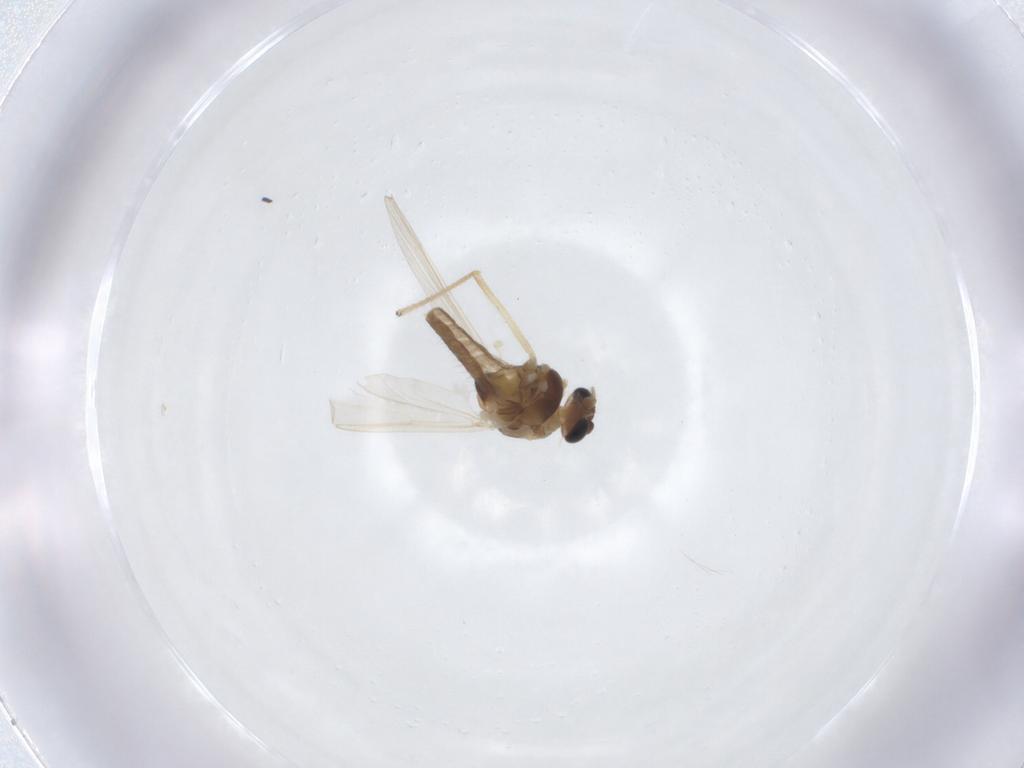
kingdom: Animalia
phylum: Arthropoda
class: Insecta
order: Diptera
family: Chironomidae
